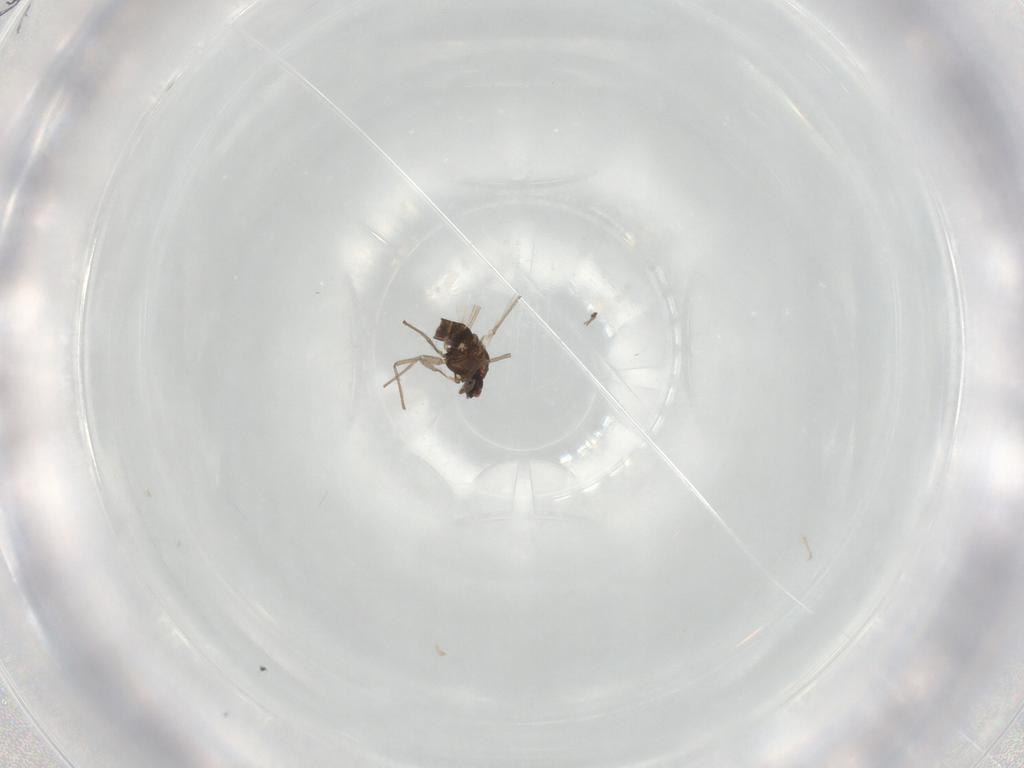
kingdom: Animalia
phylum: Arthropoda
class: Insecta
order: Diptera
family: Chironomidae
